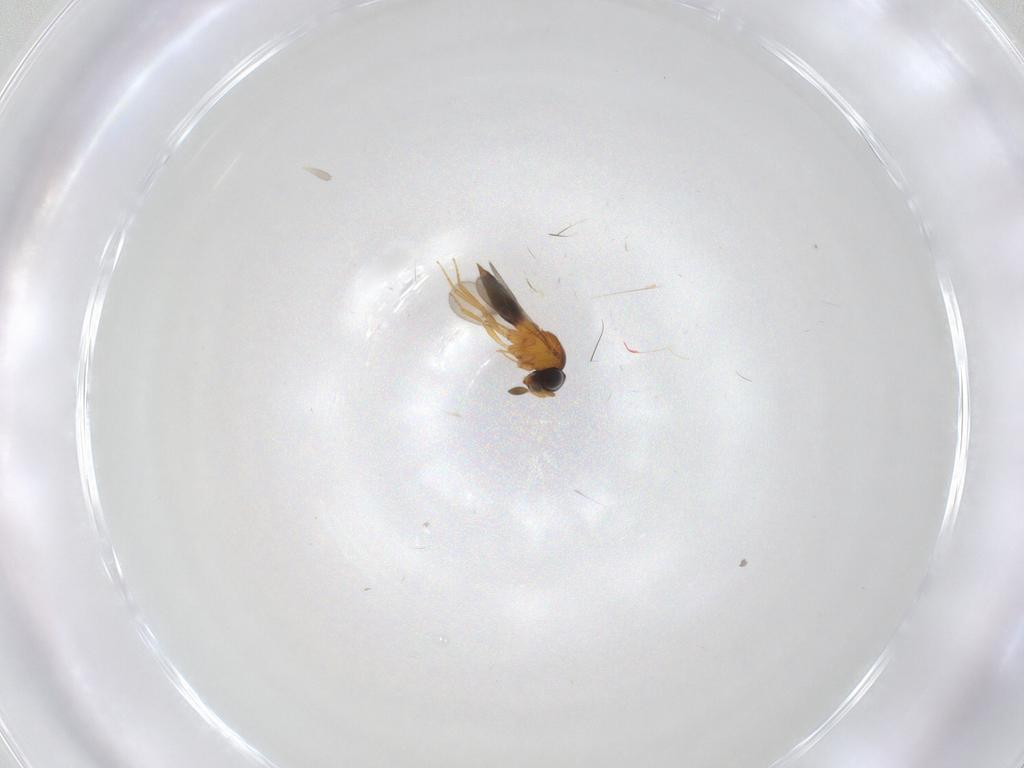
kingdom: Animalia
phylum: Arthropoda
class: Insecta
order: Hymenoptera
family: Scelionidae
